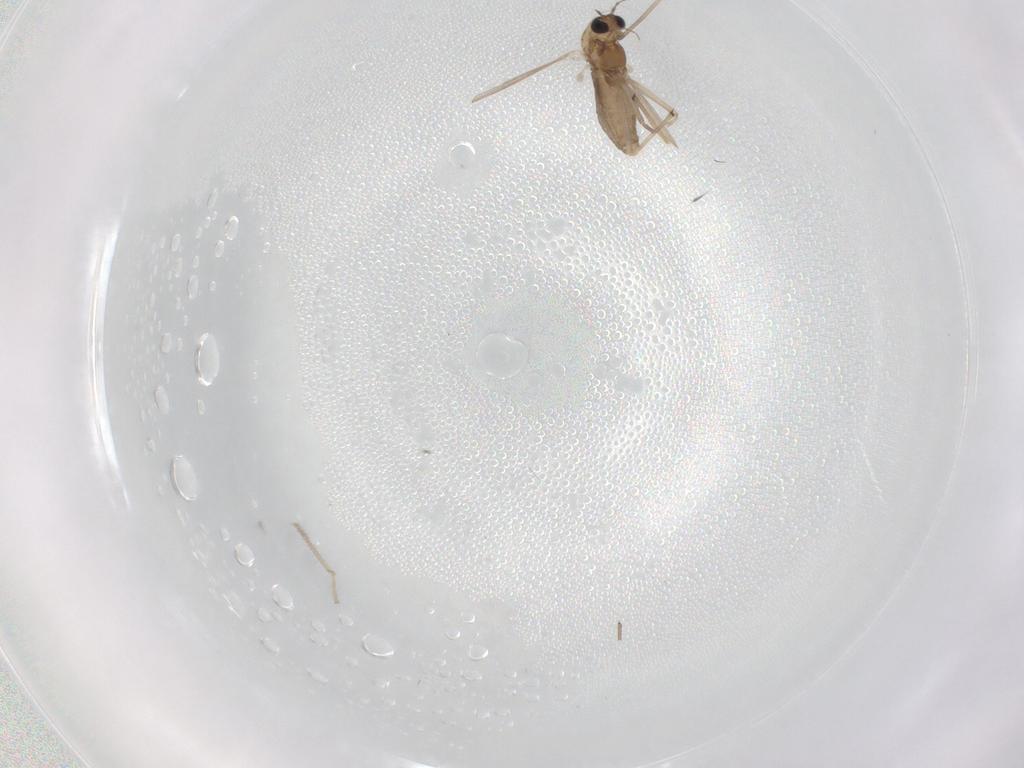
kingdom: Animalia
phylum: Arthropoda
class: Insecta
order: Diptera
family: Chironomidae
